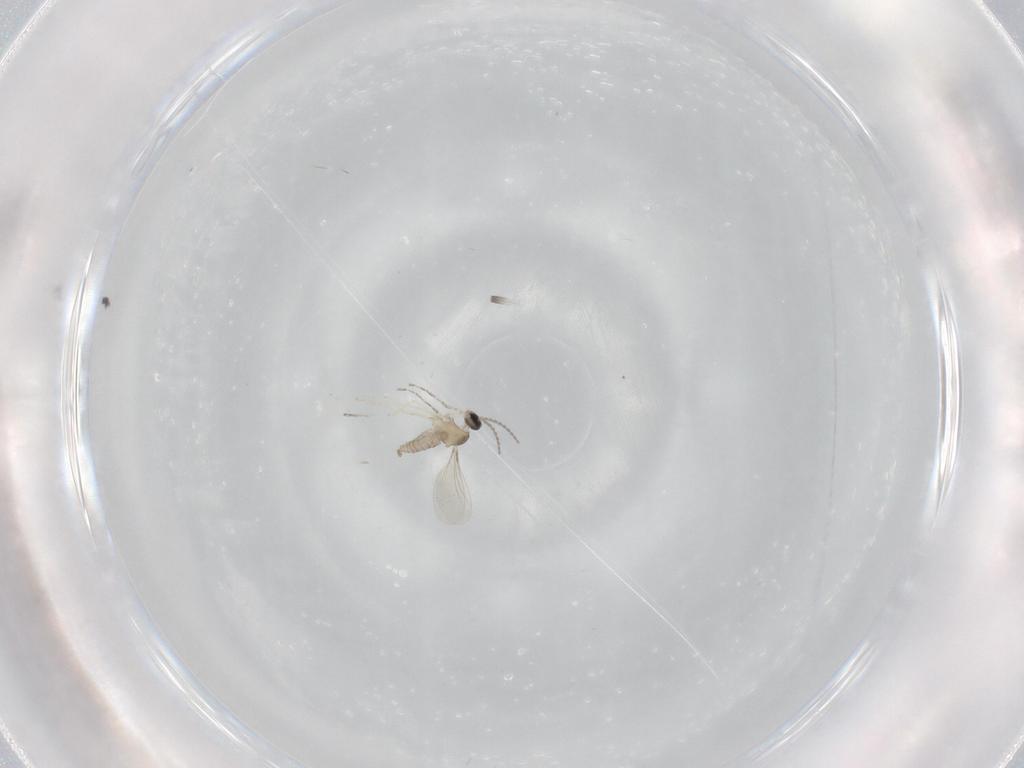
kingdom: Animalia
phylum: Arthropoda
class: Insecta
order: Diptera
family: Cecidomyiidae
